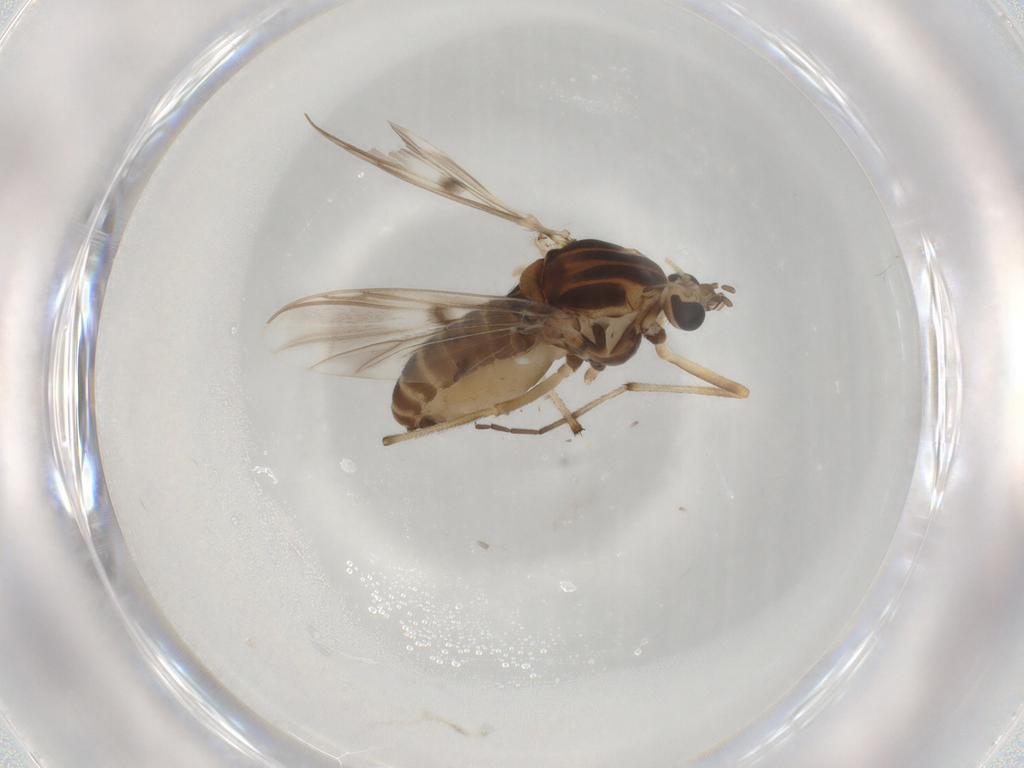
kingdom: Animalia
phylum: Arthropoda
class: Insecta
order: Diptera
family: Chironomidae
